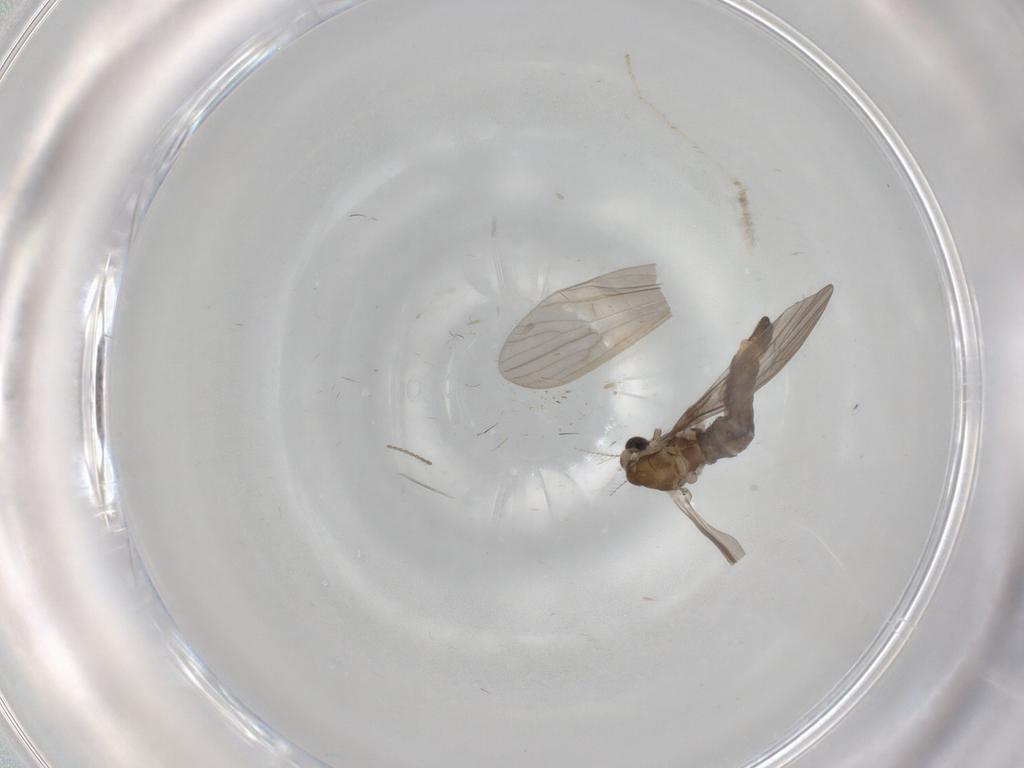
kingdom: Animalia
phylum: Arthropoda
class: Insecta
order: Diptera
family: Limoniidae
